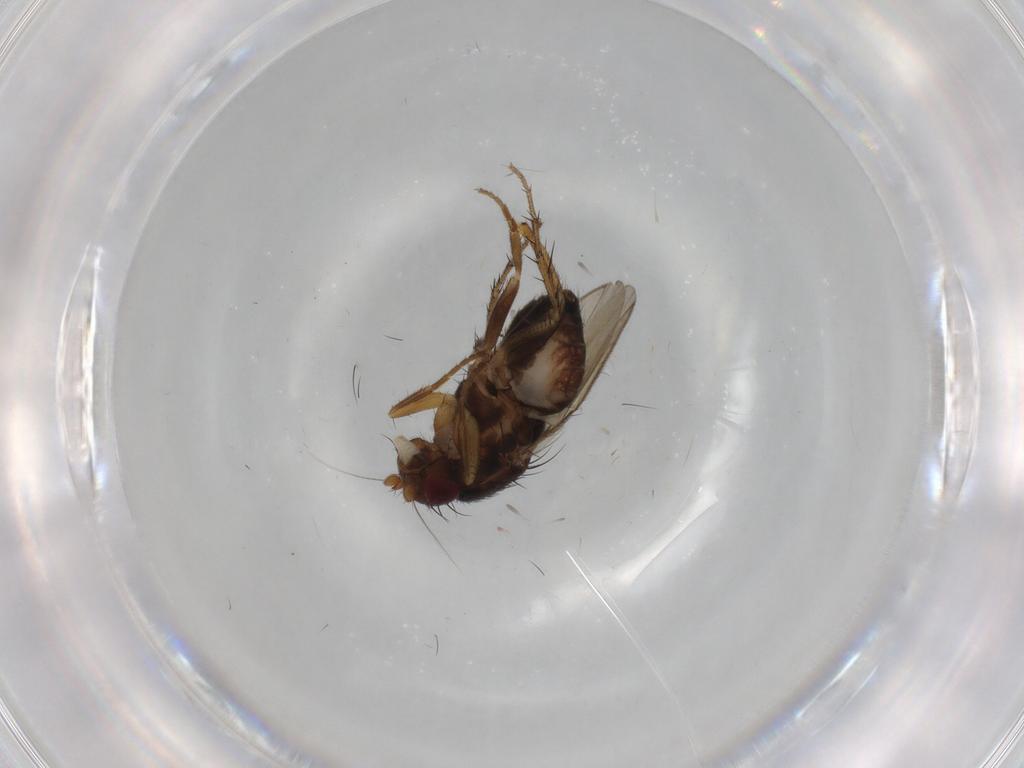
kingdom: Animalia
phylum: Arthropoda
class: Insecta
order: Diptera
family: Sphaeroceridae
